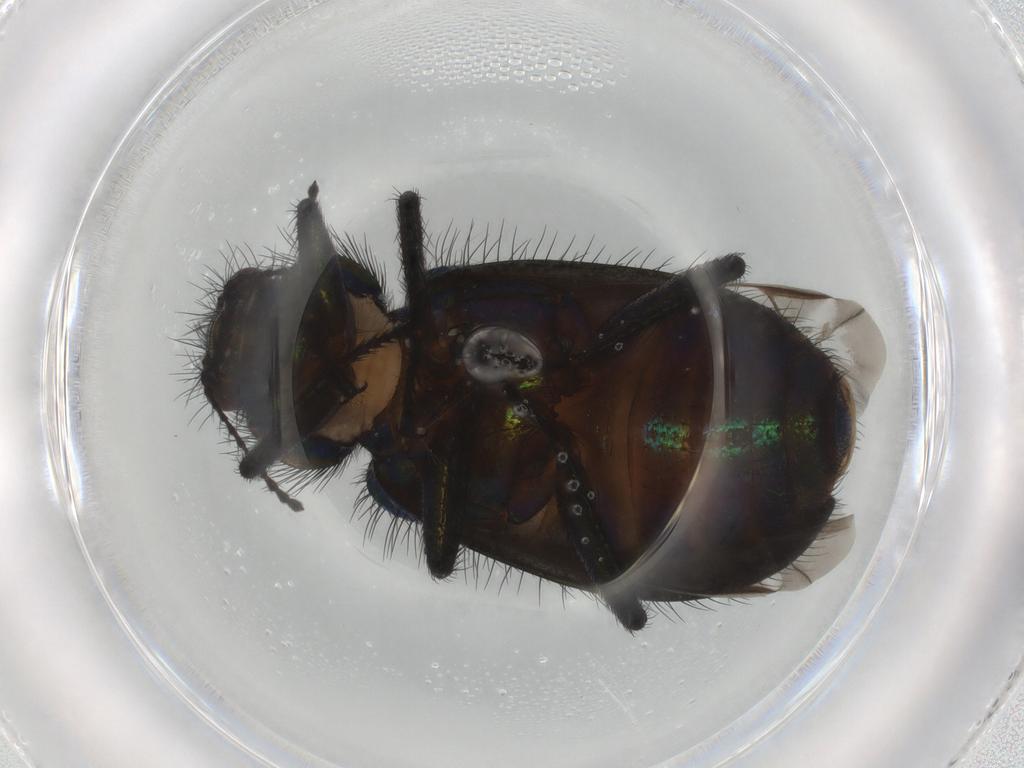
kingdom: Animalia
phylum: Arthropoda
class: Insecta
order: Coleoptera
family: Melyridae
